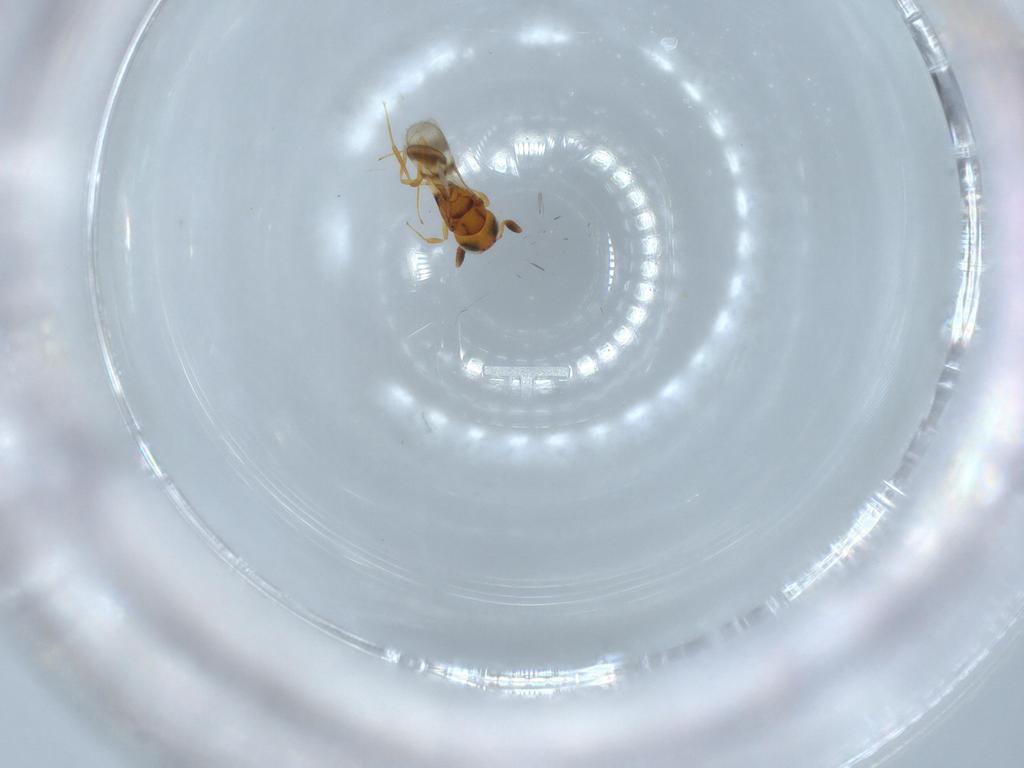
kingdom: Animalia
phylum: Arthropoda
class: Insecta
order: Hymenoptera
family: Scelionidae
